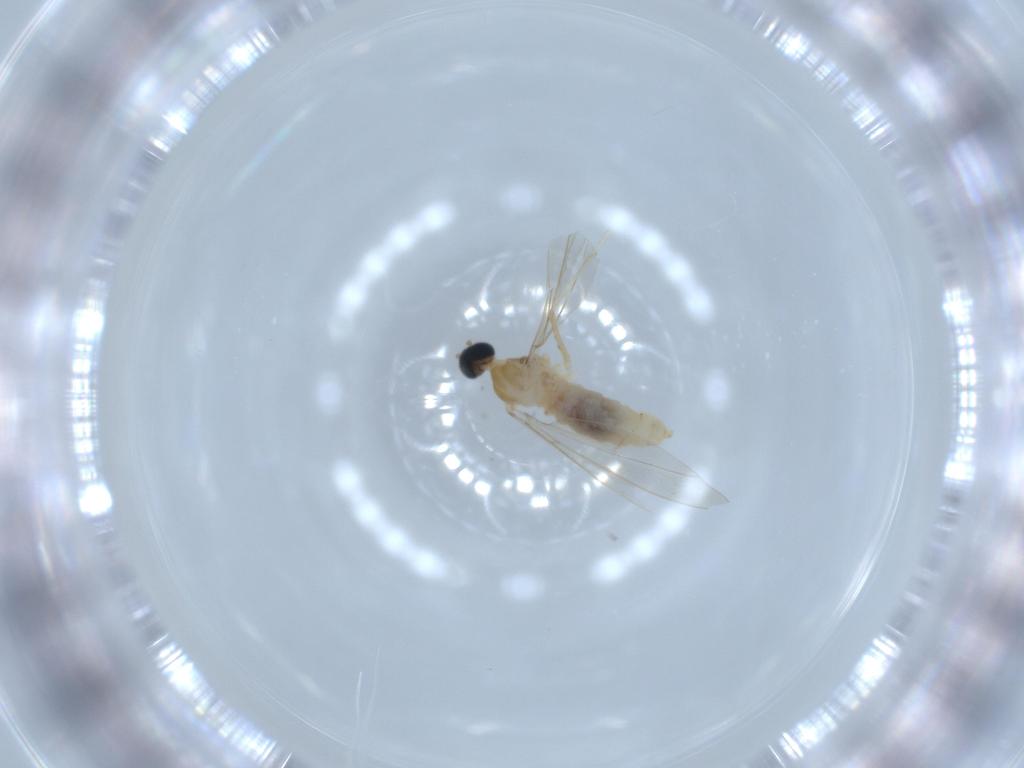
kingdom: Animalia
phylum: Arthropoda
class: Insecta
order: Diptera
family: Cecidomyiidae
